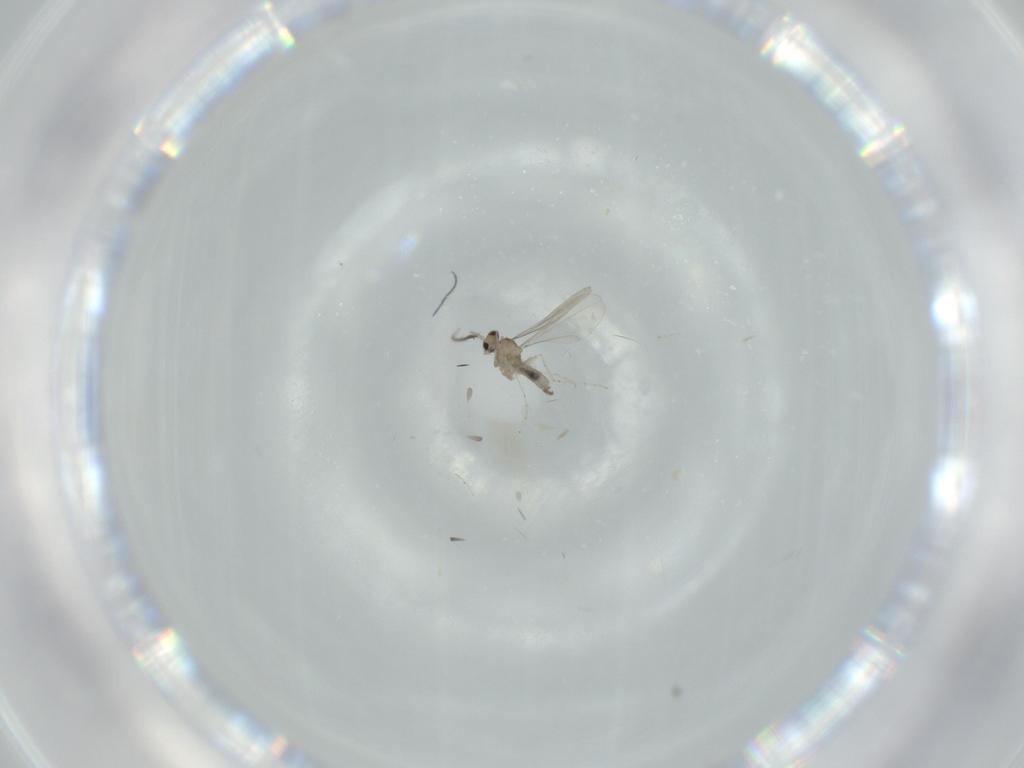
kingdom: Animalia
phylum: Arthropoda
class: Insecta
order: Diptera
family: Cecidomyiidae
